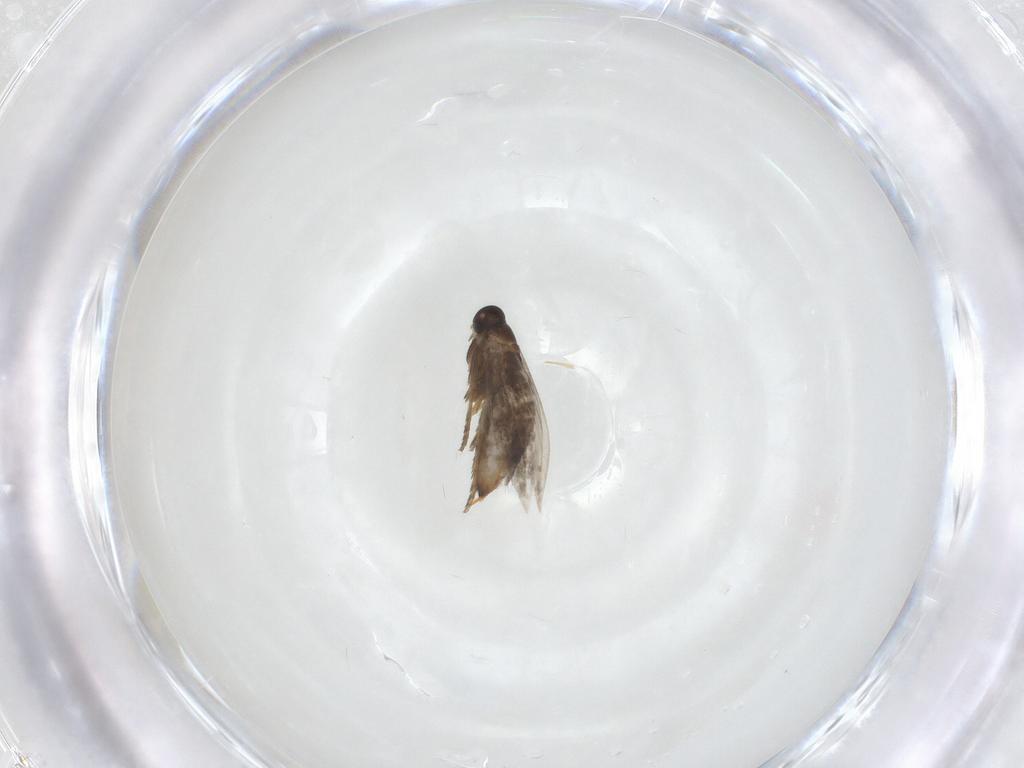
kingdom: Animalia
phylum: Arthropoda
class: Insecta
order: Lepidoptera
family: Heliozelidae
